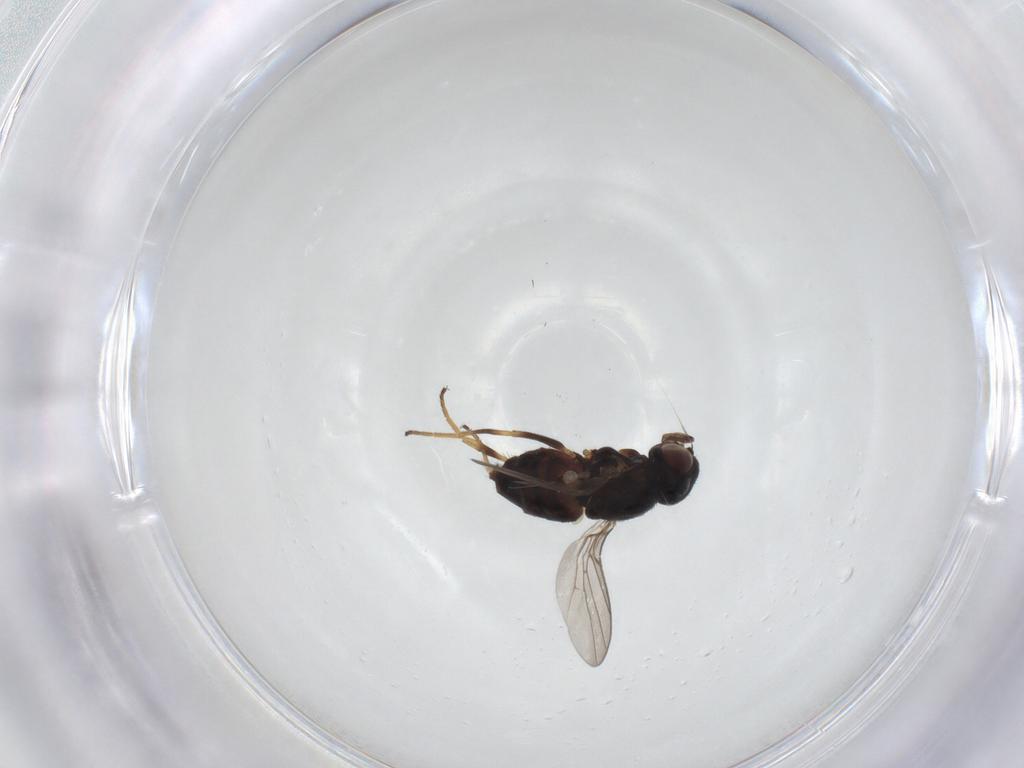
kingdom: Animalia
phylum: Arthropoda
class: Insecta
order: Diptera
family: Chloropidae
